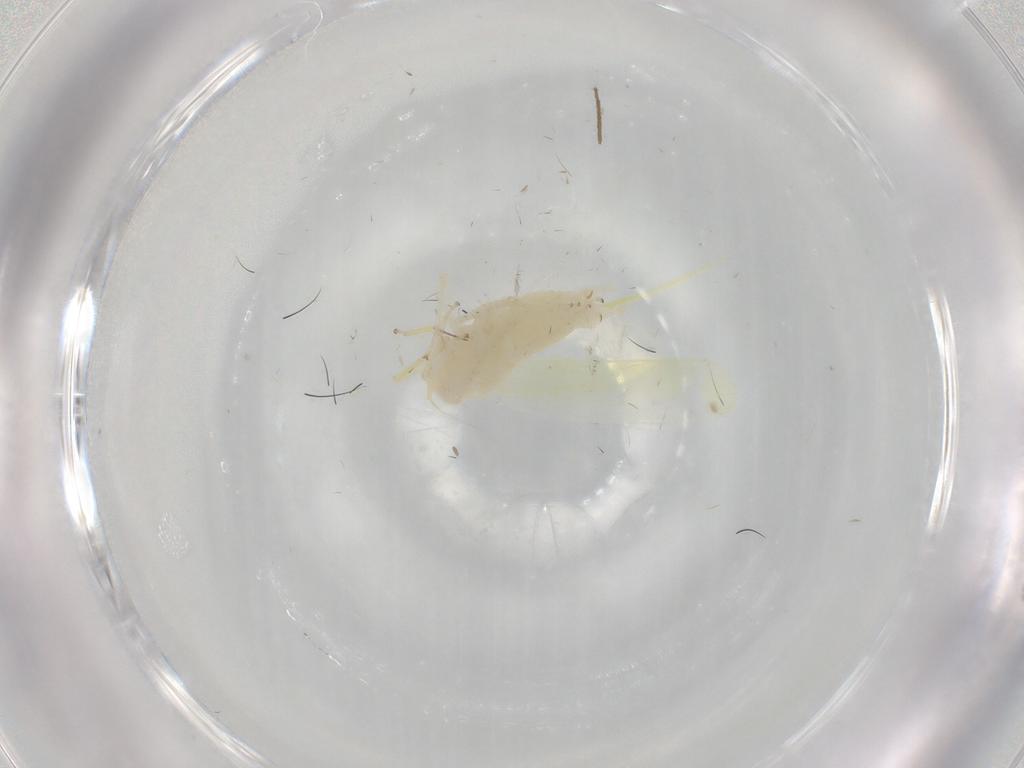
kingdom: Animalia
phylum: Arthropoda
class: Insecta
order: Hemiptera
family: Cicadellidae
